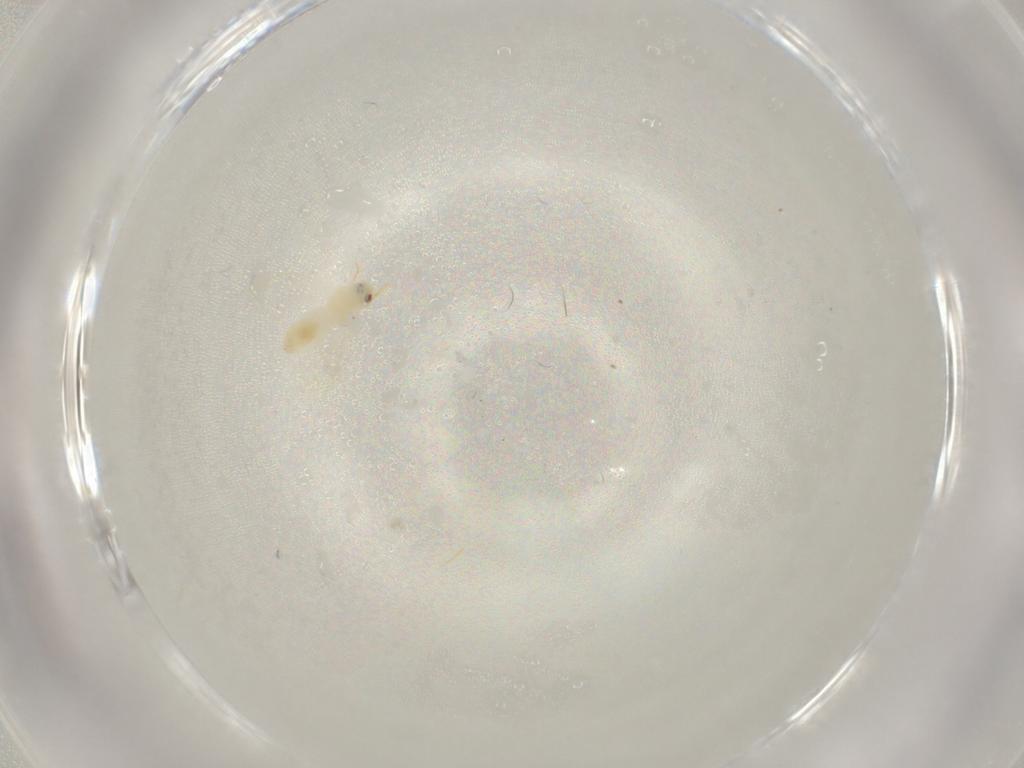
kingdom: Animalia
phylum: Arthropoda
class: Insecta
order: Hemiptera
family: Aleyrodidae
